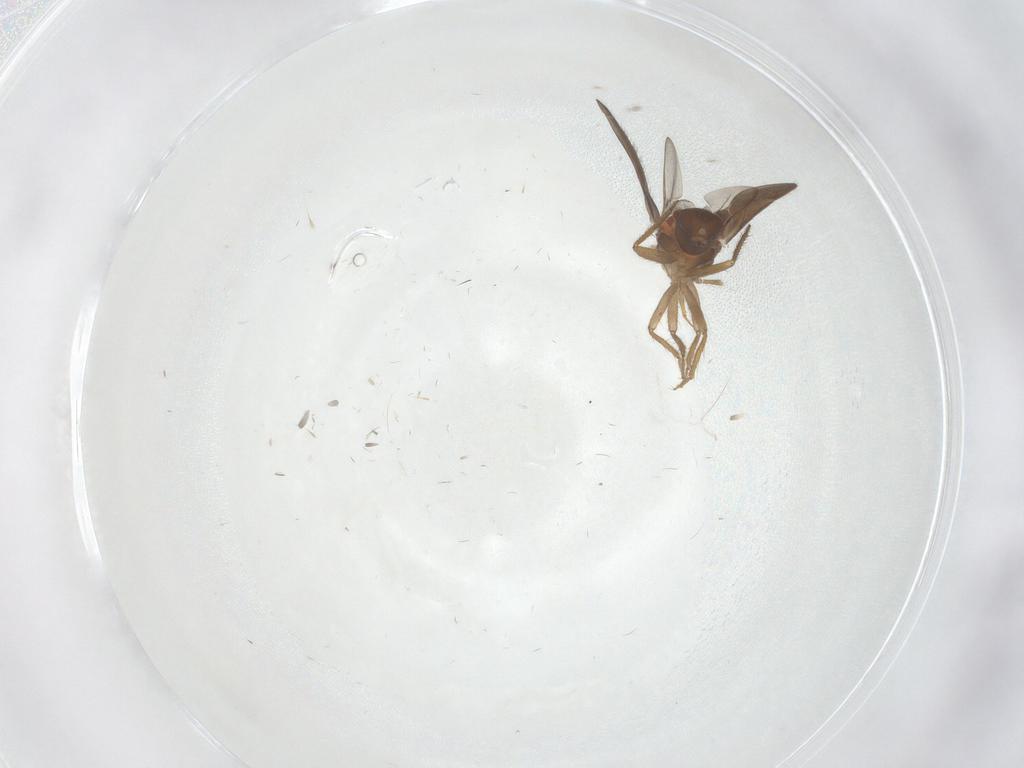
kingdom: Animalia
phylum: Arthropoda
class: Insecta
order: Hemiptera
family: Ceratocombidae
